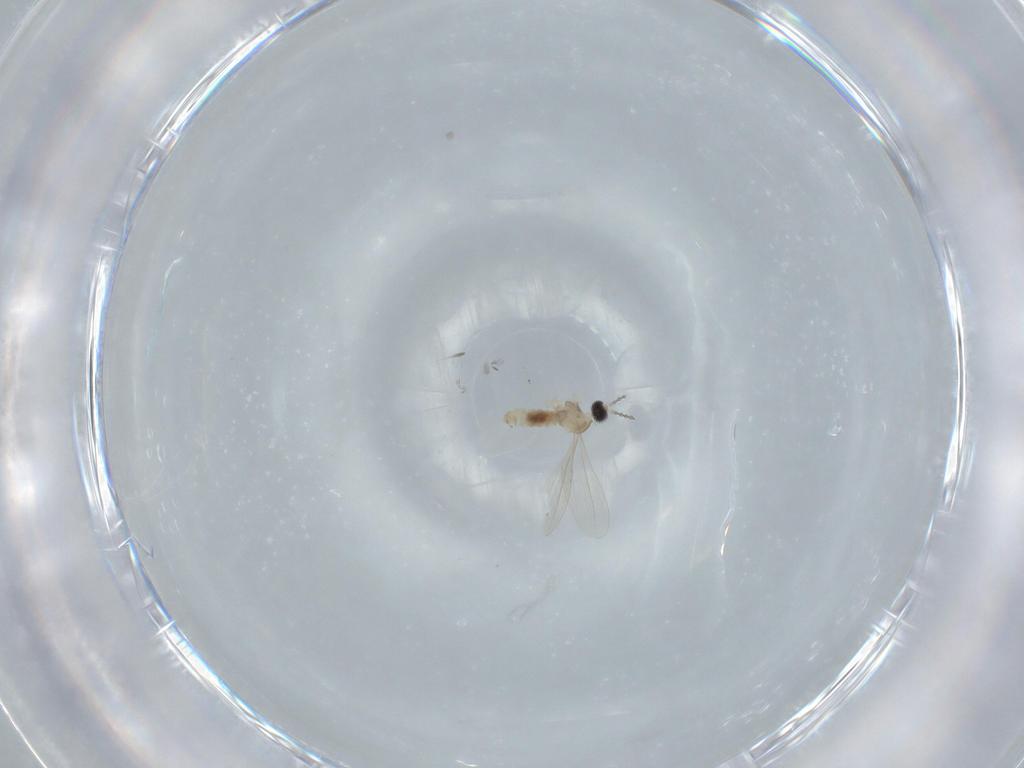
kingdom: Animalia
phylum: Arthropoda
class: Insecta
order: Diptera
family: Cecidomyiidae
